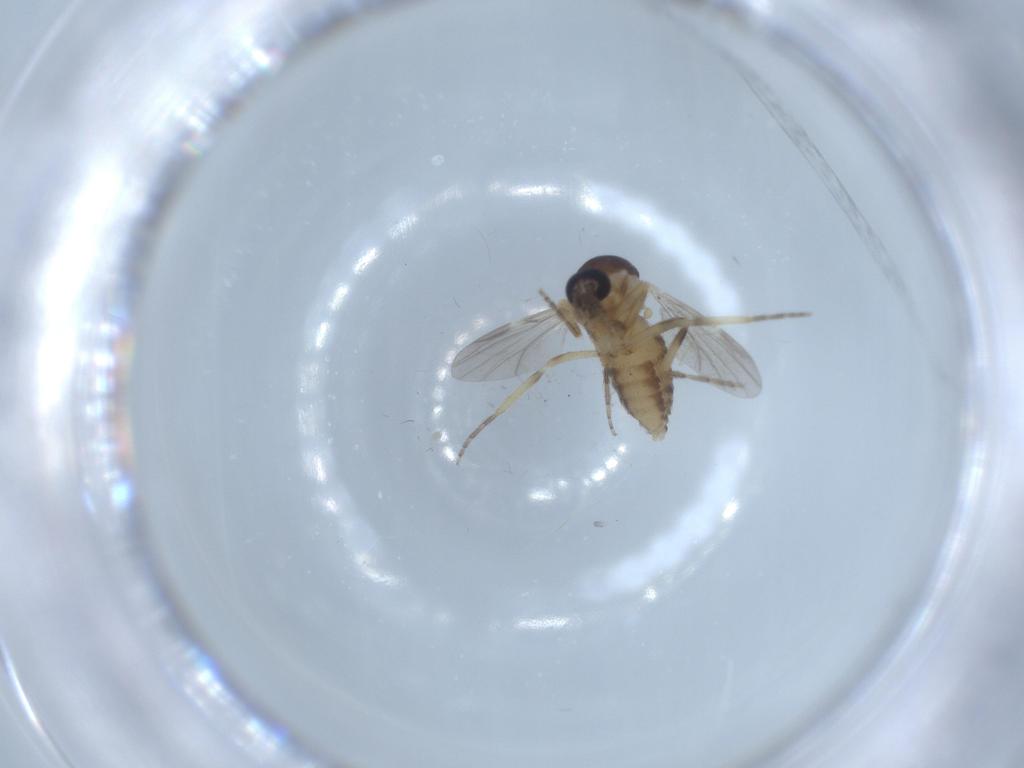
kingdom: Animalia
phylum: Arthropoda
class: Insecta
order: Diptera
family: Ceratopogonidae
